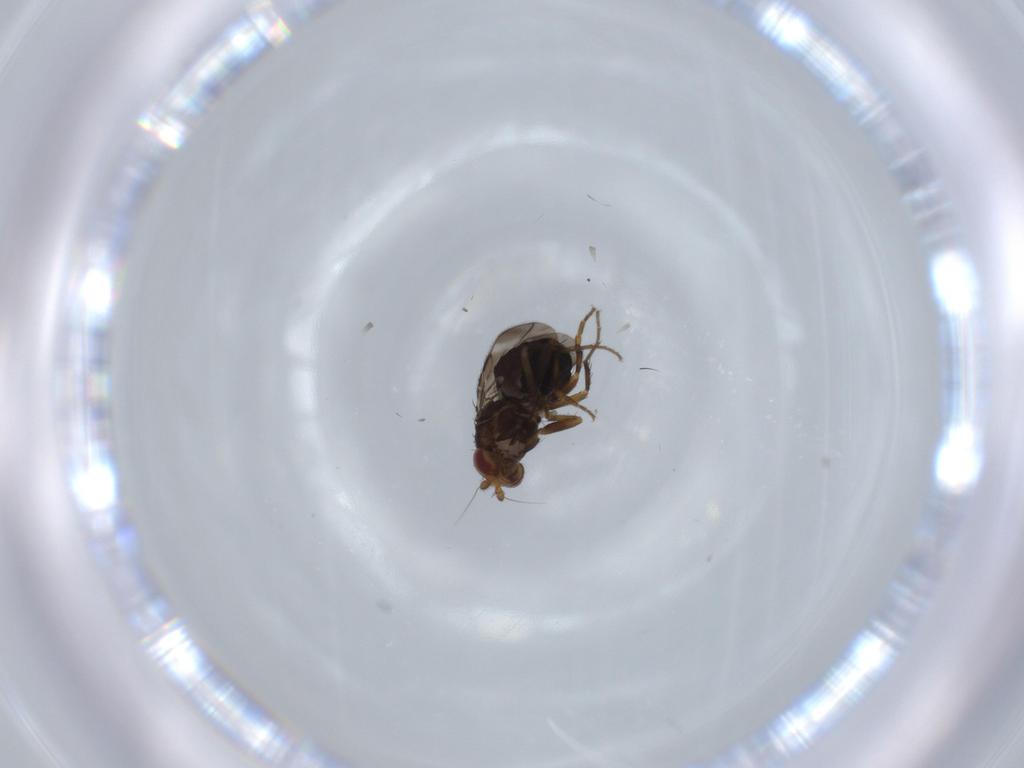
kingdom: Animalia
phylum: Arthropoda
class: Insecta
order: Diptera
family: Sphaeroceridae
